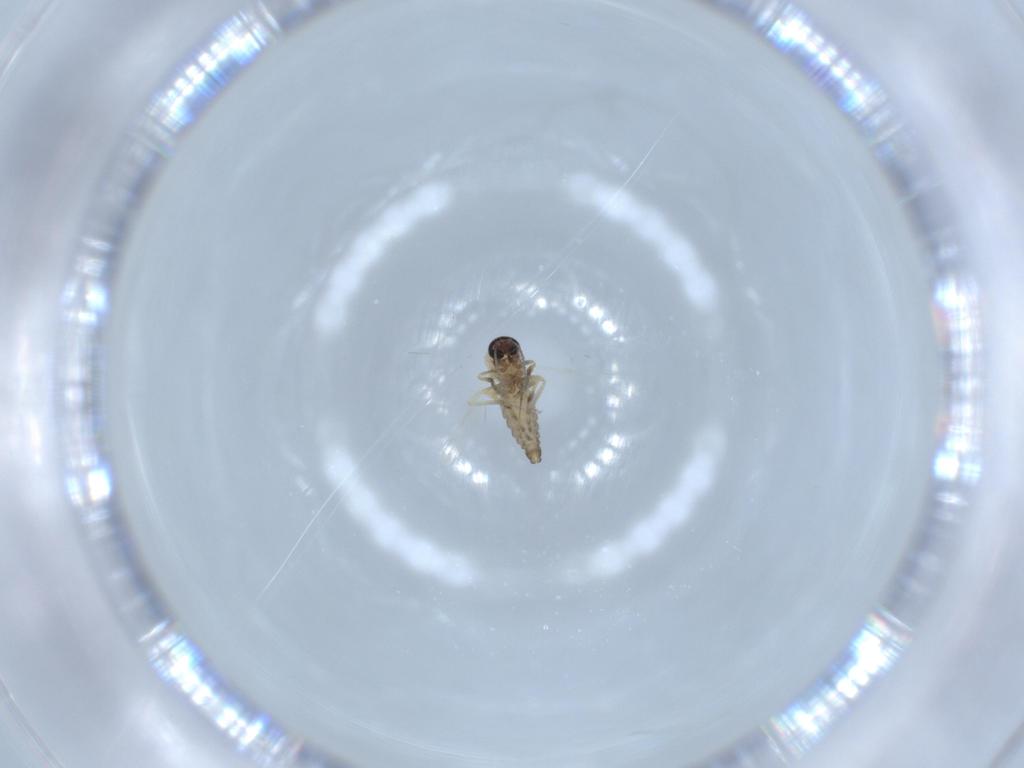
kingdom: Animalia
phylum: Arthropoda
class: Insecta
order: Diptera
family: Ceratopogonidae
